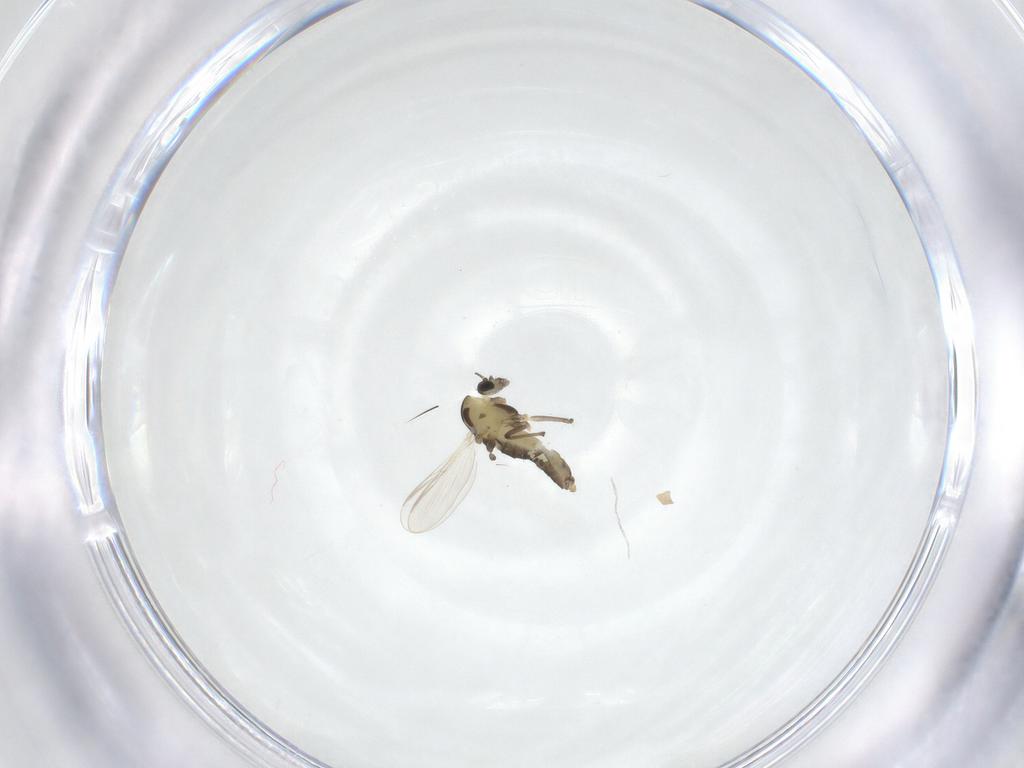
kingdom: Animalia
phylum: Arthropoda
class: Insecta
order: Diptera
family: Chironomidae
